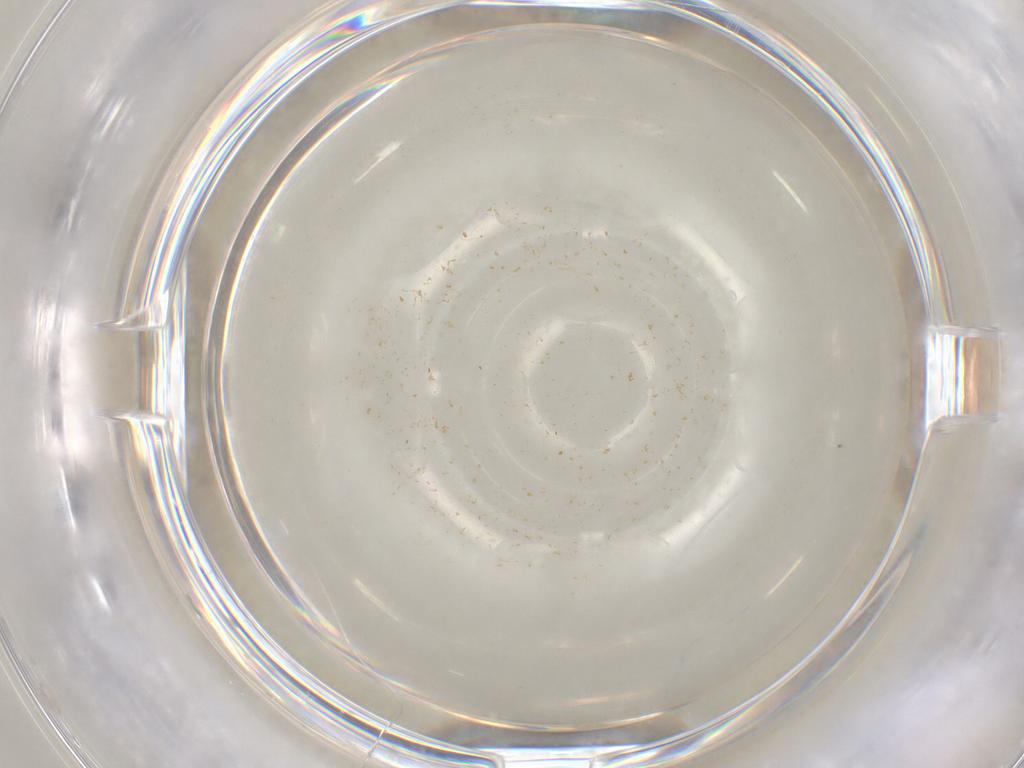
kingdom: Animalia
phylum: Arthropoda
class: Insecta
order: Hymenoptera
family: Scelionidae
